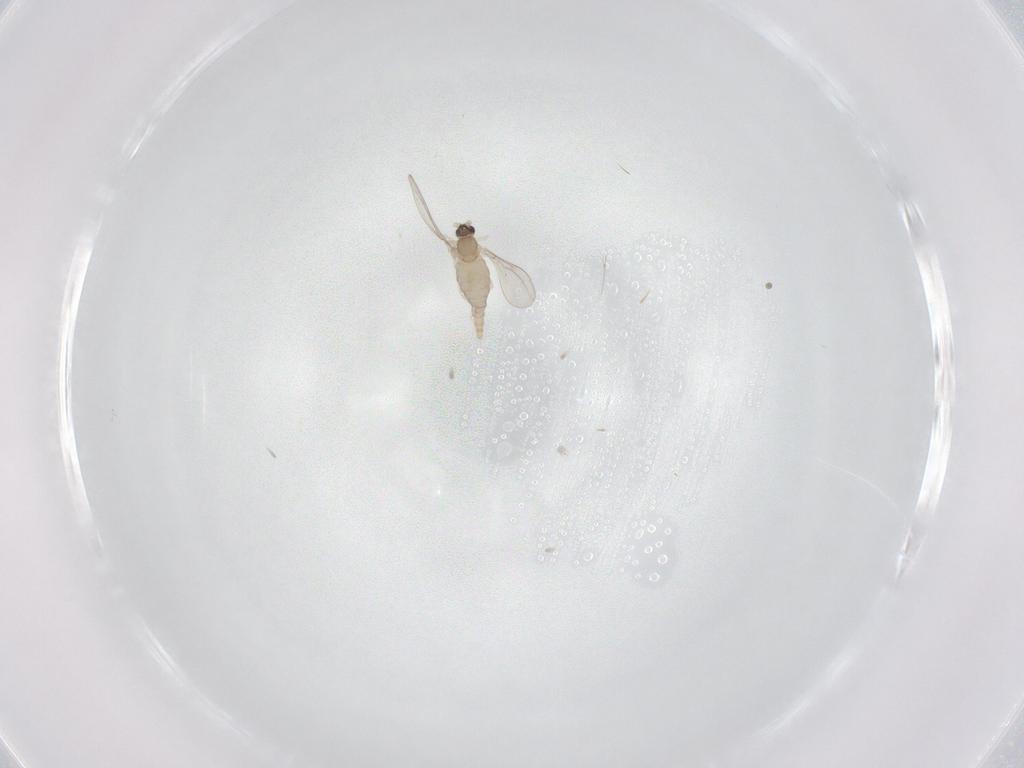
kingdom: Animalia
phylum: Arthropoda
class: Insecta
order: Diptera
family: Cecidomyiidae
